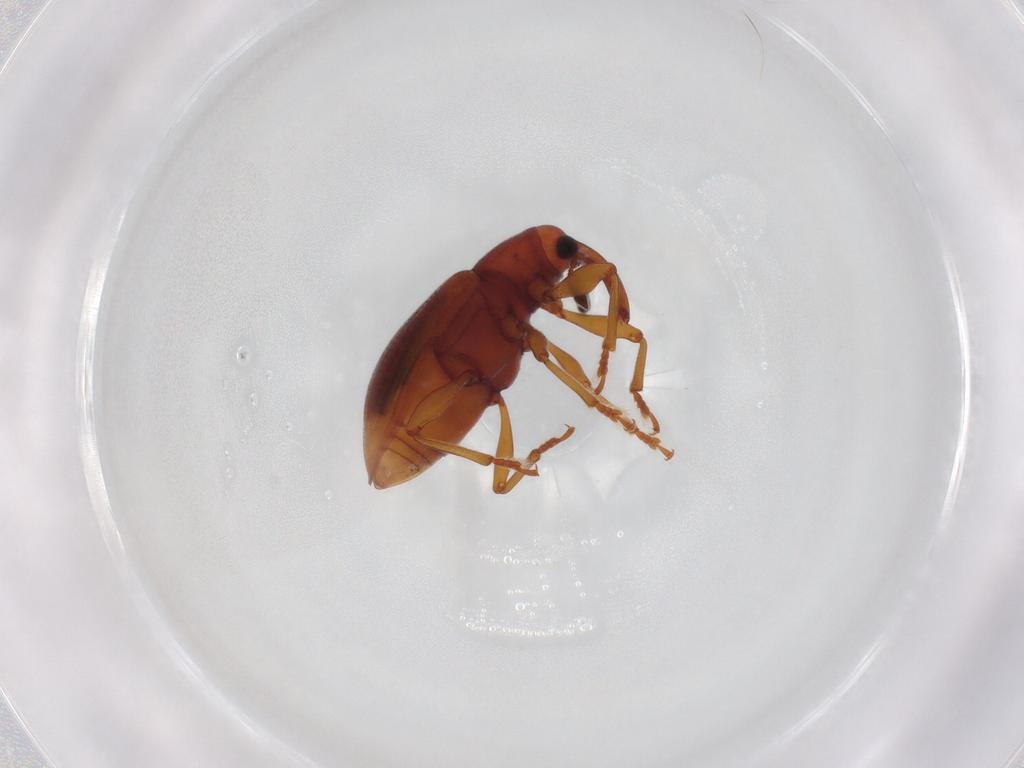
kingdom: Animalia
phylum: Arthropoda
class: Insecta
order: Coleoptera
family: Curculionidae
